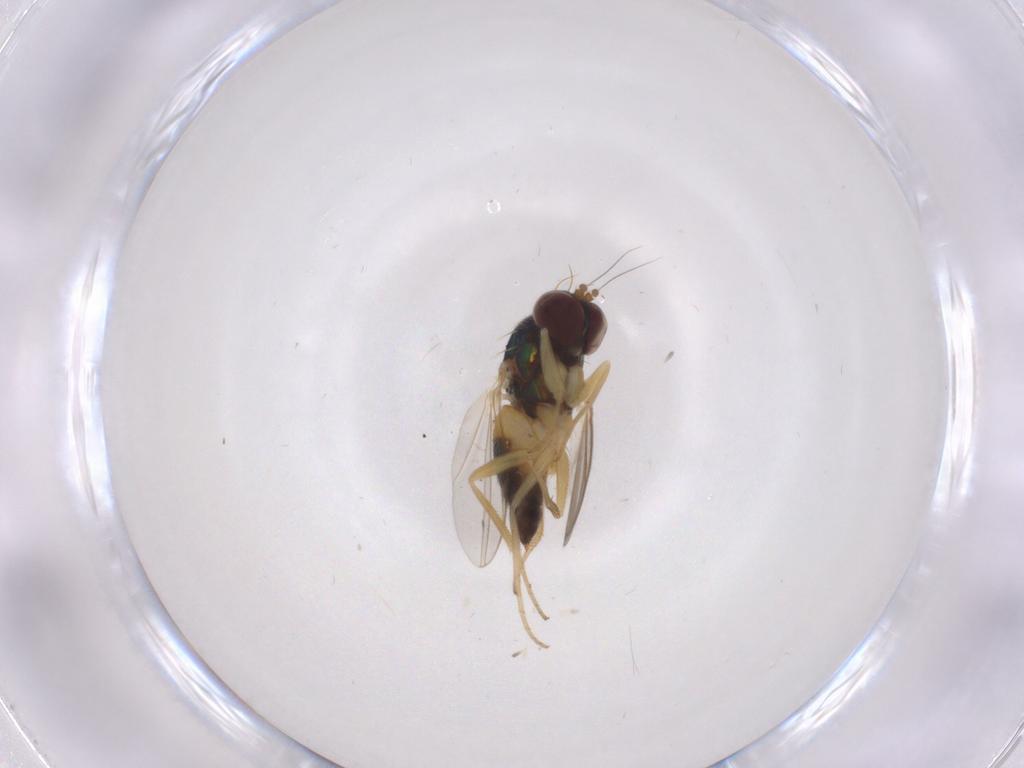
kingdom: Animalia
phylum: Arthropoda
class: Insecta
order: Diptera
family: Dolichopodidae
